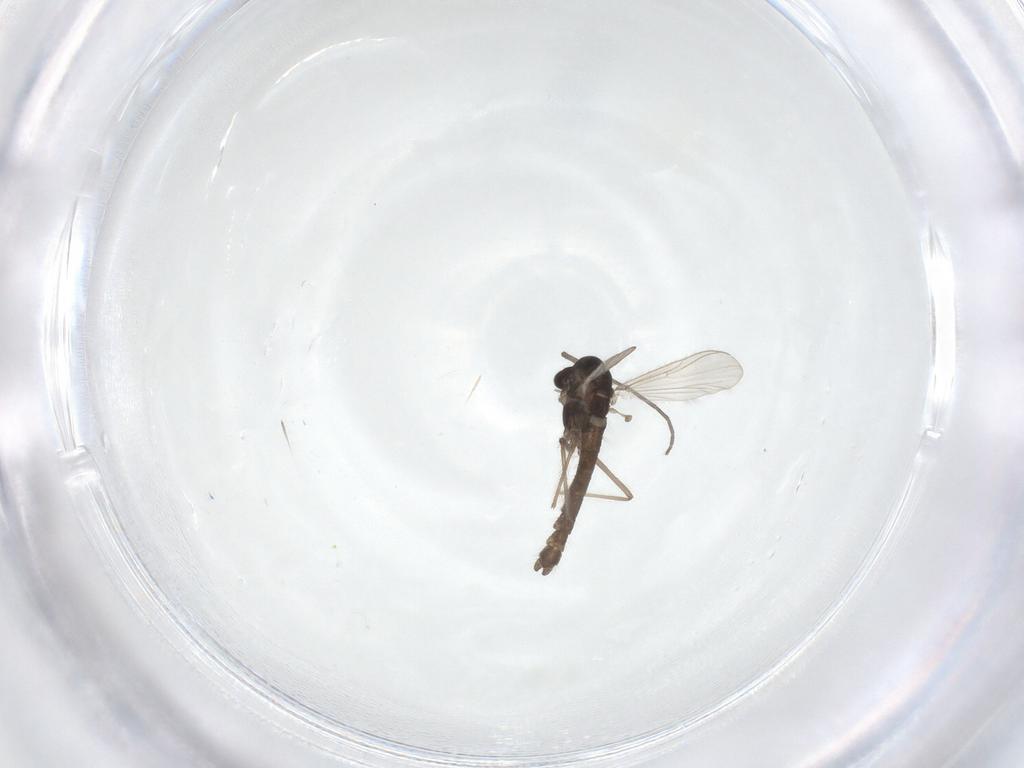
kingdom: Animalia
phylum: Arthropoda
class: Insecta
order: Diptera
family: Chironomidae
